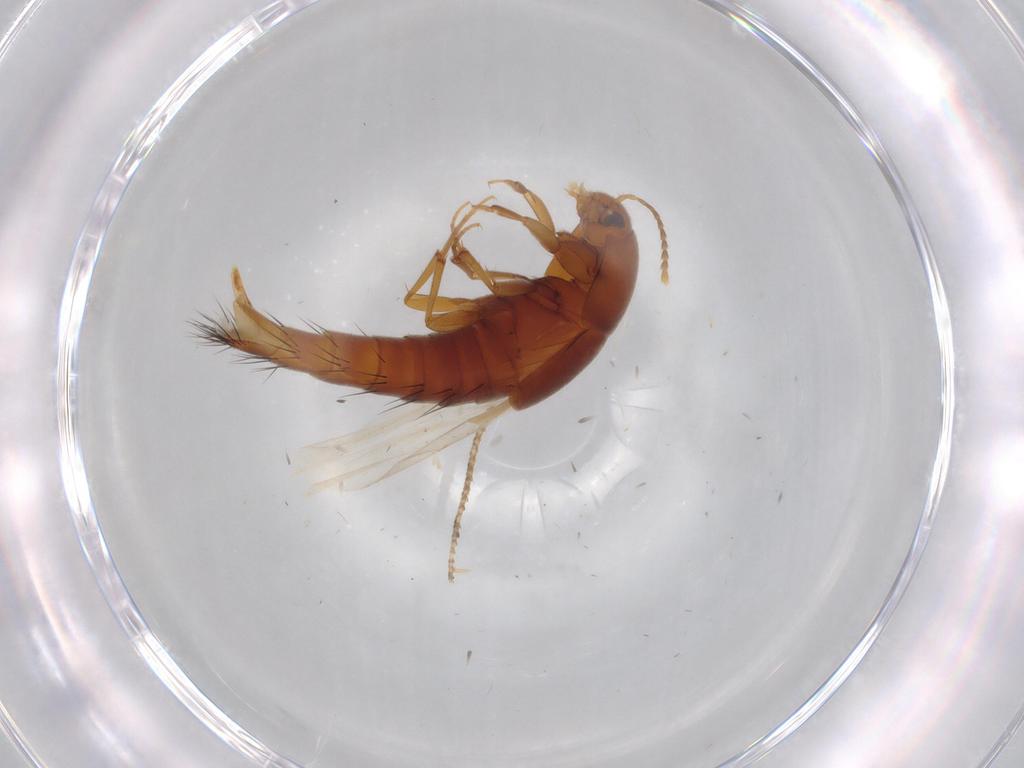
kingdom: Animalia
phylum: Arthropoda
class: Insecta
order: Coleoptera
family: Staphylinidae
